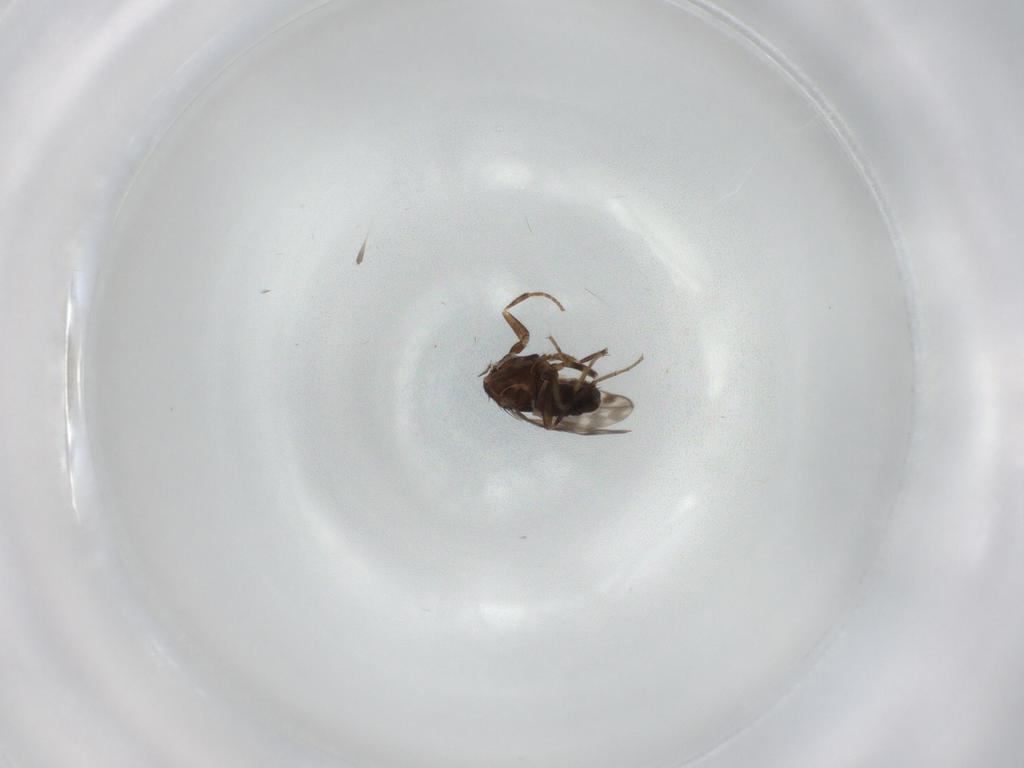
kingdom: Animalia
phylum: Arthropoda
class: Insecta
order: Diptera
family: Sphaeroceridae
